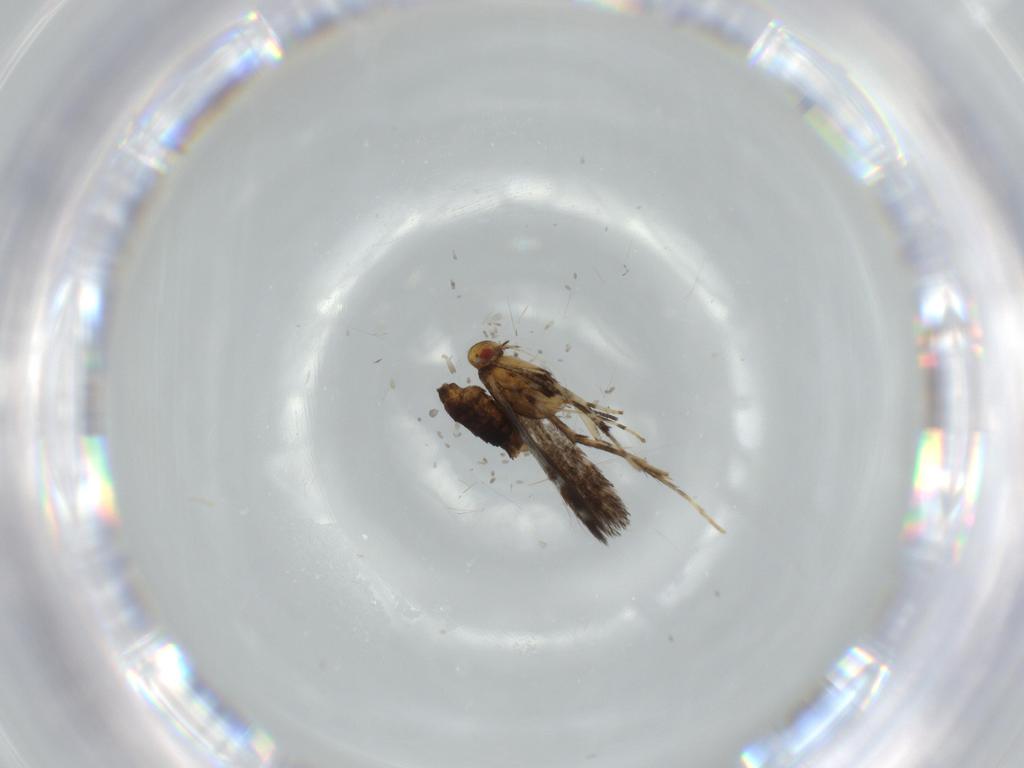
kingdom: Animalia
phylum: Arthropoda
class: Insecta
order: Lepidoptera
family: Gracillariidae
